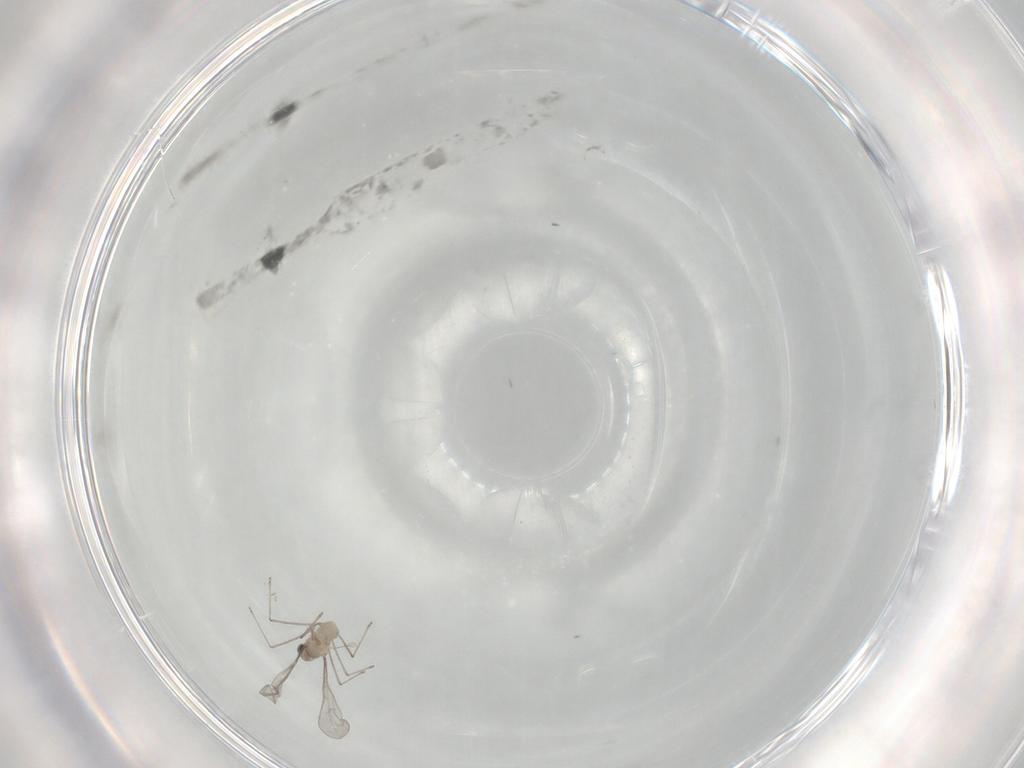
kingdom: Animalia
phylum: Arthropoda
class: Insecta
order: Diptera
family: Cecidomyiidae
